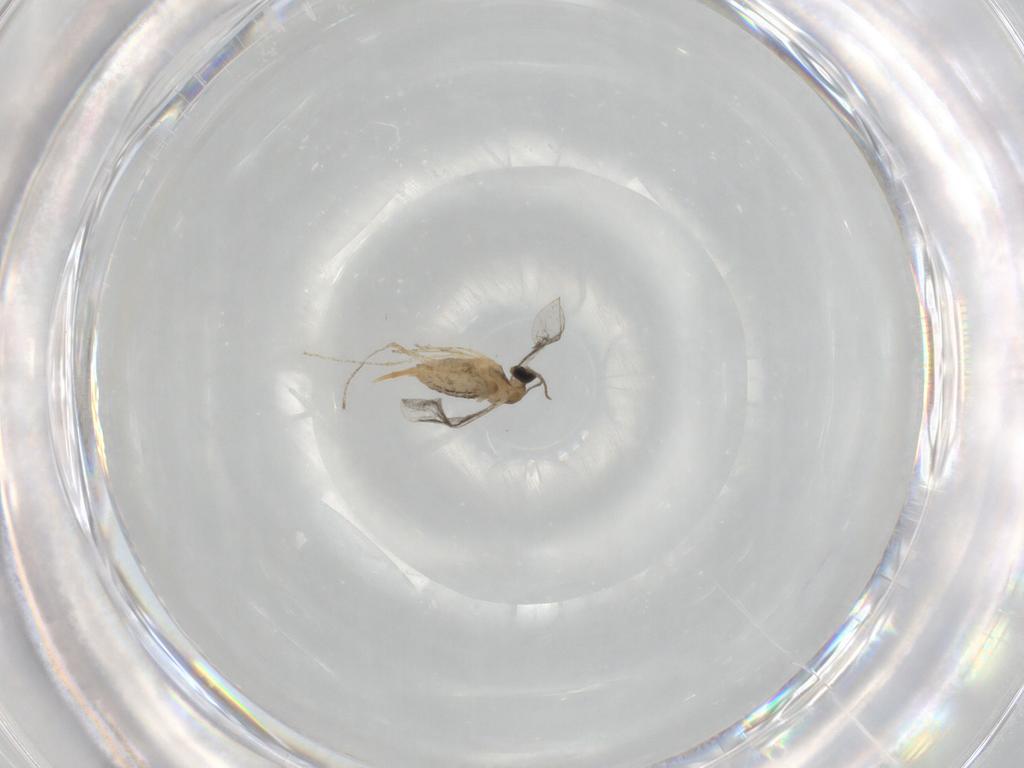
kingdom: Animalia
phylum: Arthropoda
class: Insecta
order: Diptera
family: Cecidomyiidae
